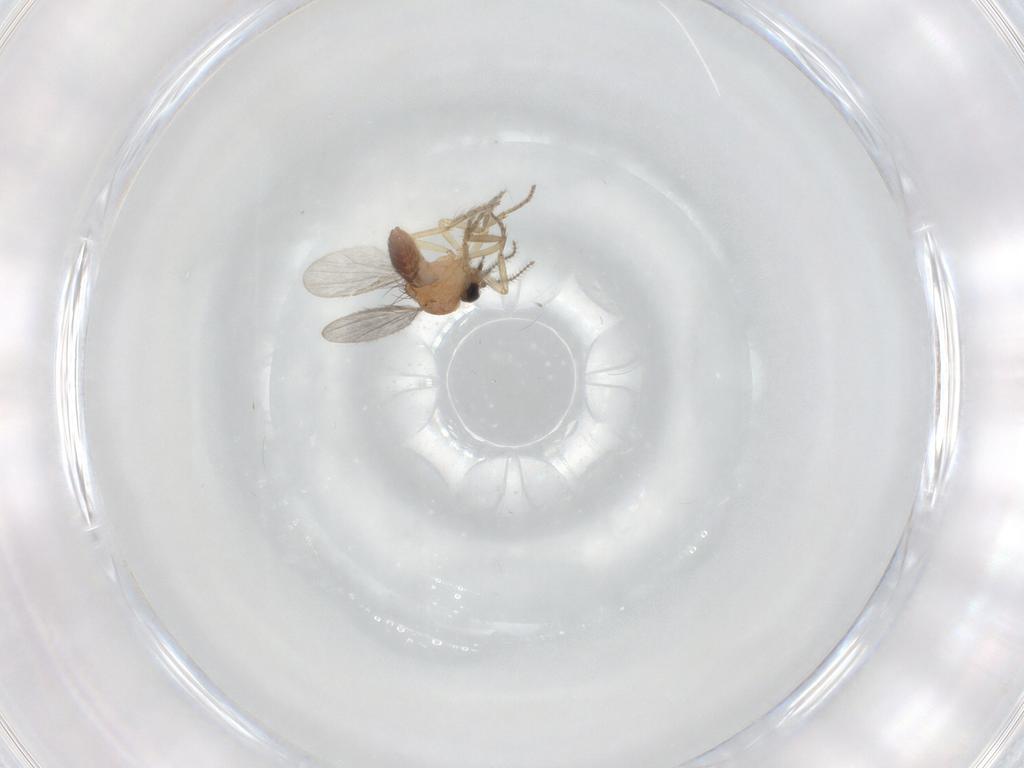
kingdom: Animalia
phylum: Arthropoda
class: Insecta
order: Diptera
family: Ceratopogonidae
